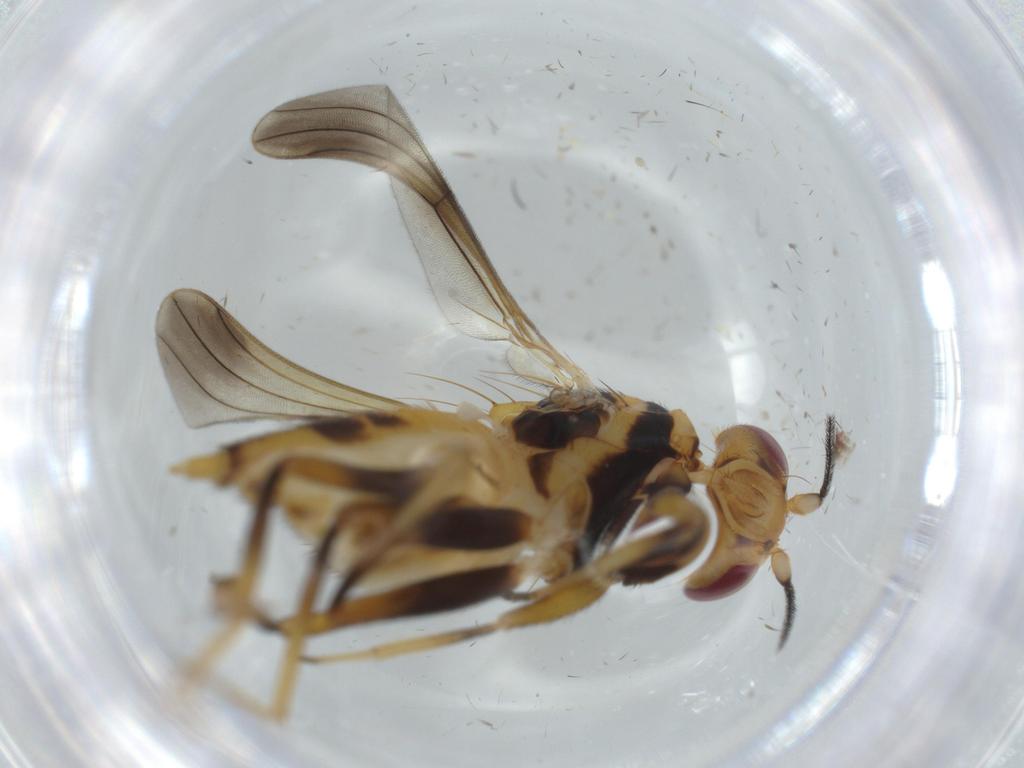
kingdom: Animalia
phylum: Arthropoda
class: Insecta
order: Diptera
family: Clusiidae
